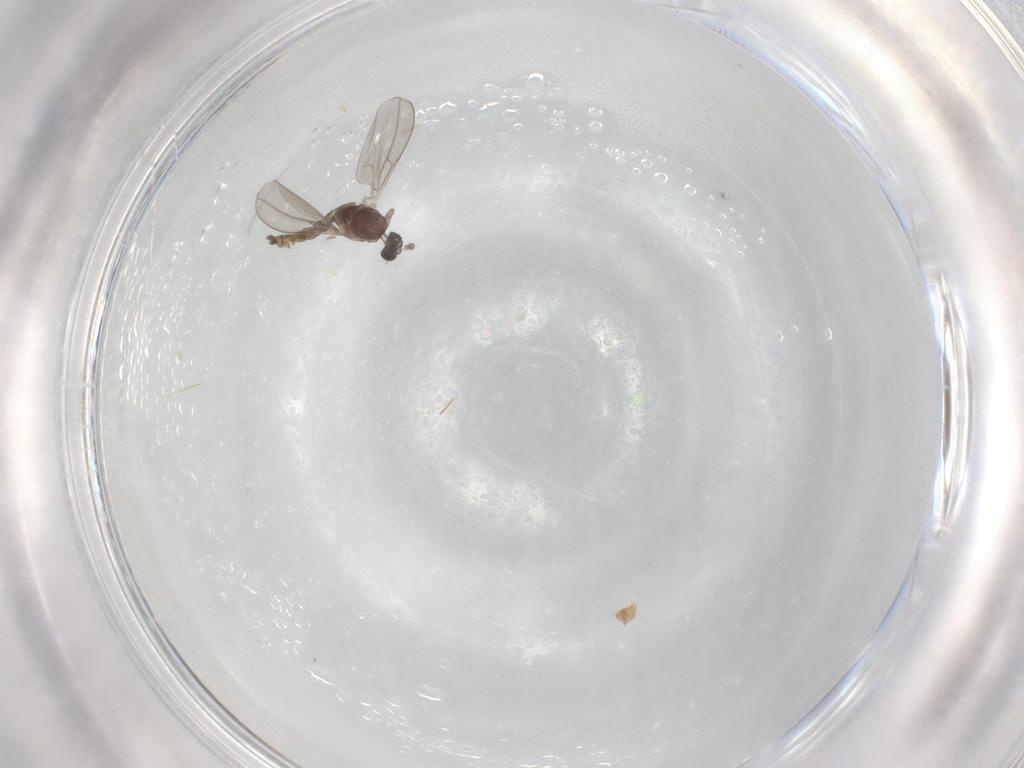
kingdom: Animalia
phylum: Arthropoda
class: Insecta
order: Diptera
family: Cecidomyiidae
